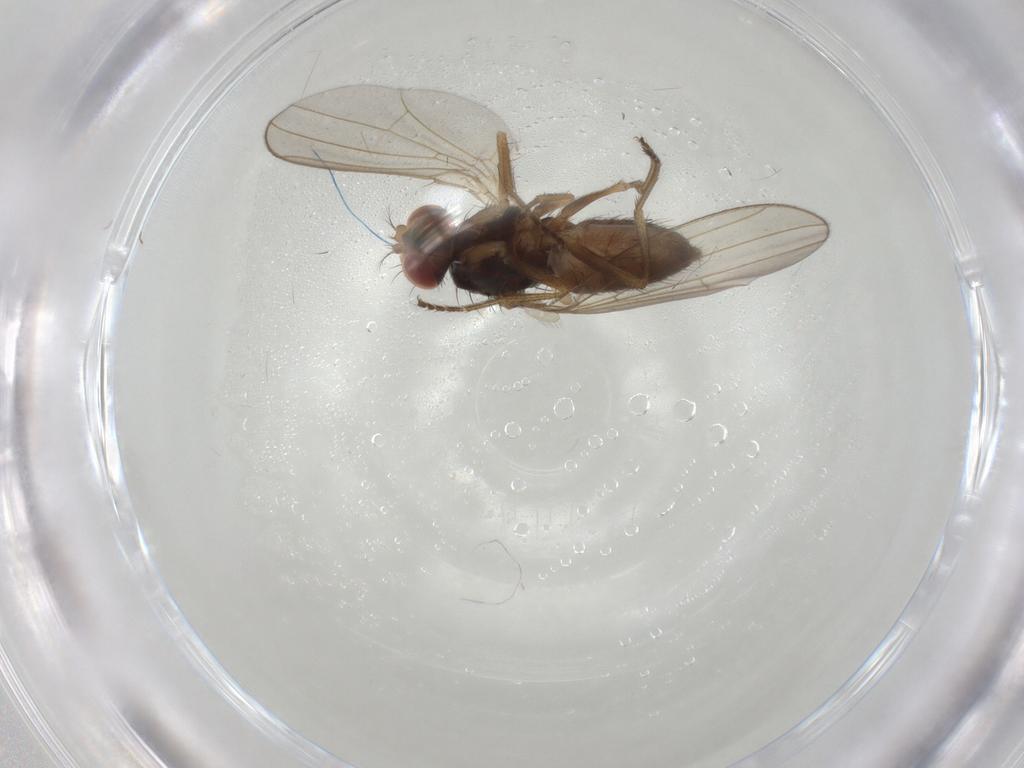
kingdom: Animalia
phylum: Arthropoda
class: Insecta
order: Diptera
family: Drosophilidae
